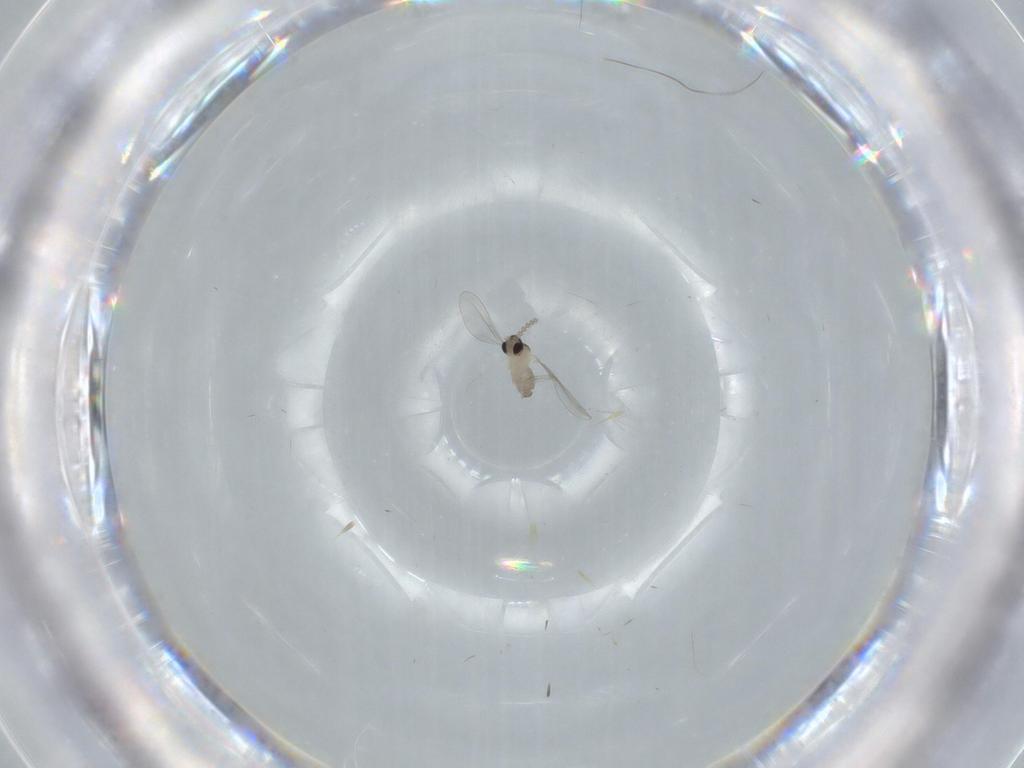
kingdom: Animalia
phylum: Arthropoda
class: Insecta
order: Diptera
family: Cecidomyiidae
